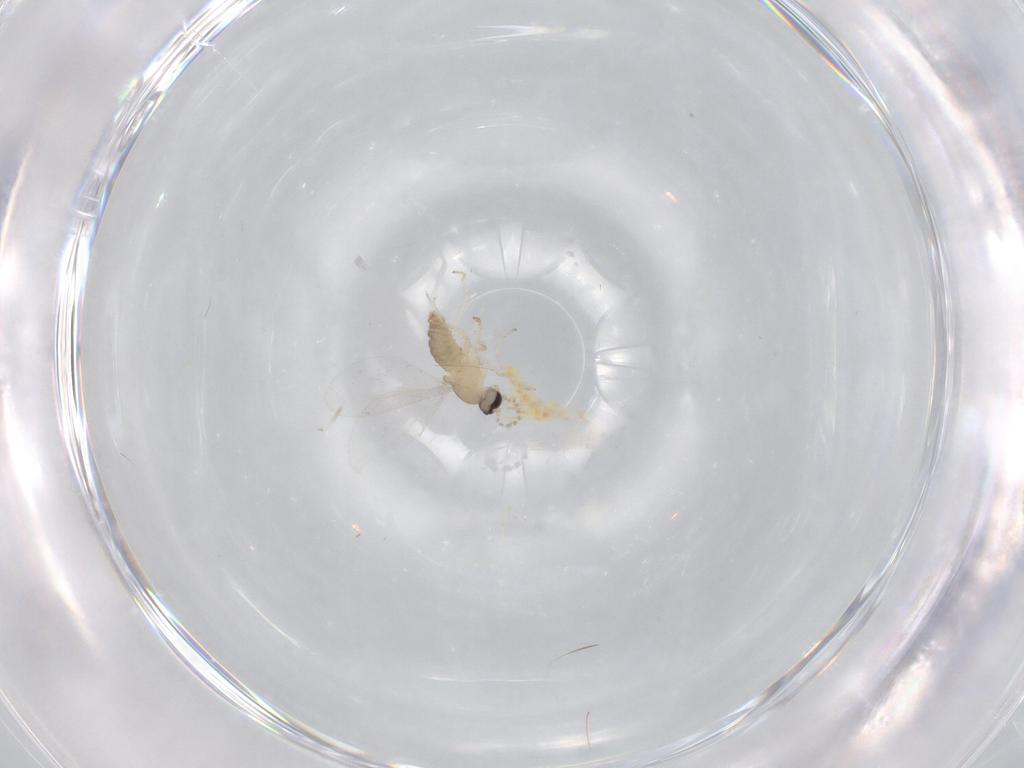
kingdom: Animalia
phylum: Arthropoda
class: Insecta
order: Diptera
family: Cecidomyiidae
